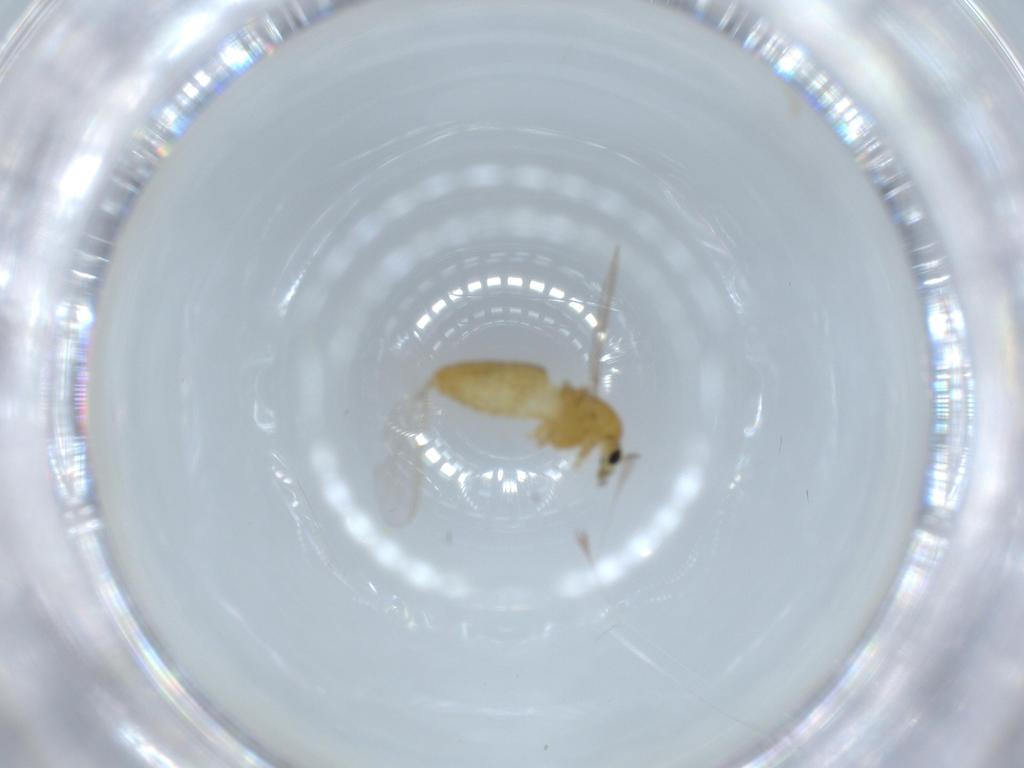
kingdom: Animalia
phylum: Arthropoda
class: Insecta
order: Diptera
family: Chironomidae
